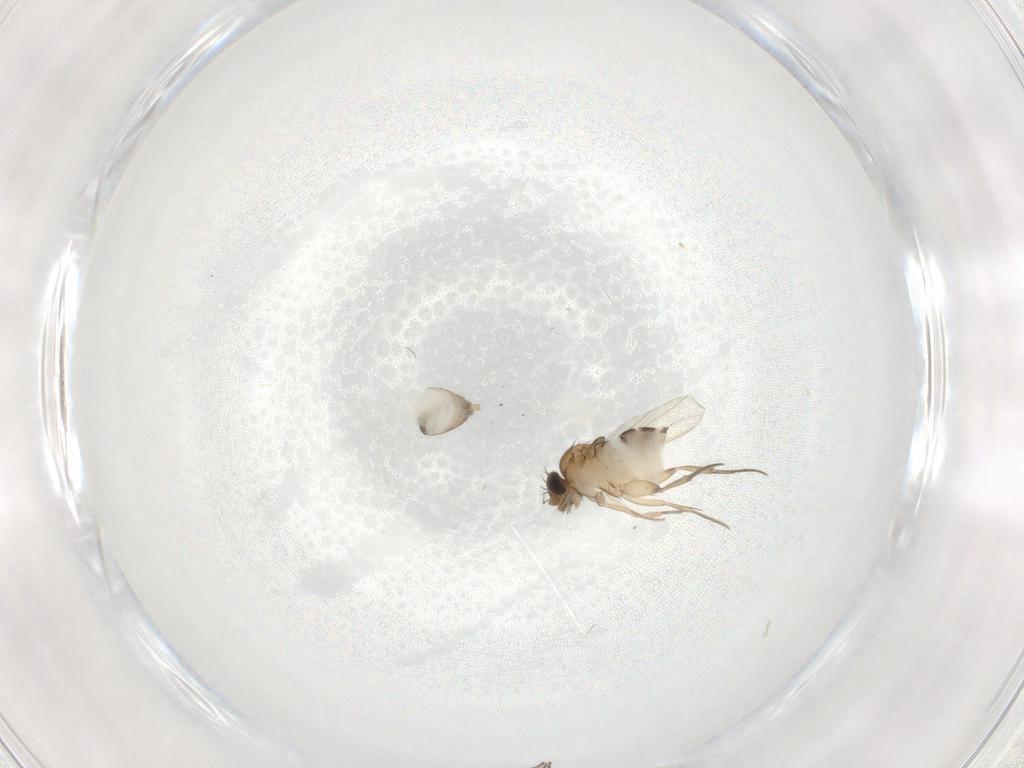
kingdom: Animalia
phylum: Arthropoda
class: Insecta
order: Diptera
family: Phoridae
